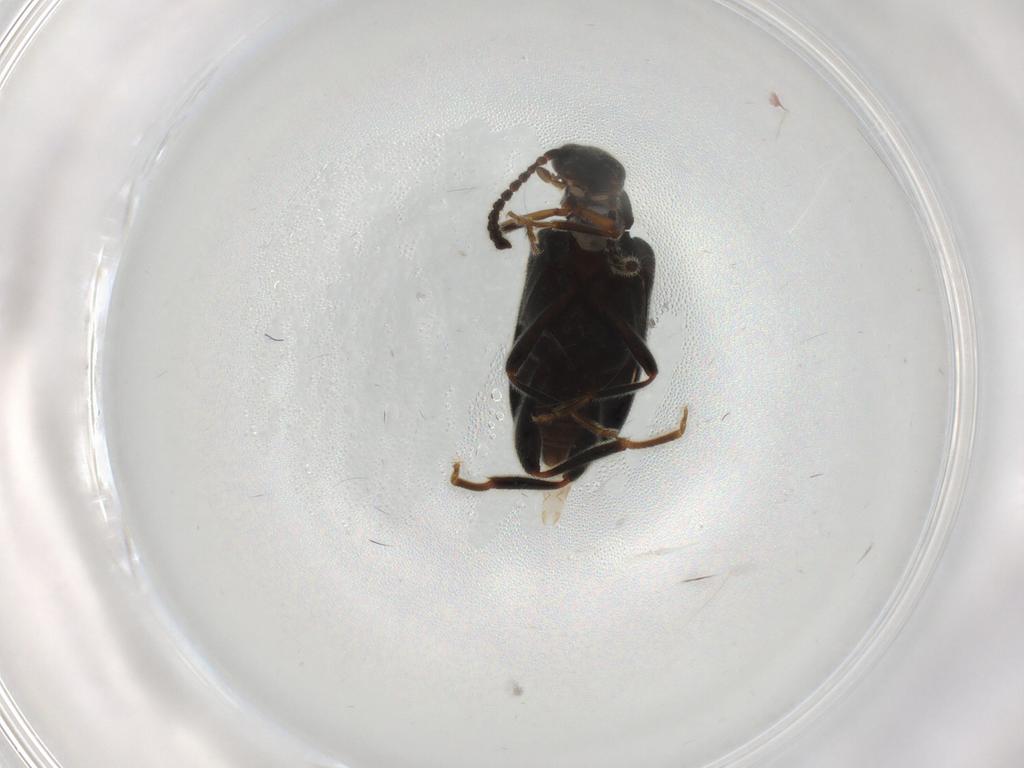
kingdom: Animalia
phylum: Arthropoda
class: Insecta
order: Coleoptera
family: Aderidae
